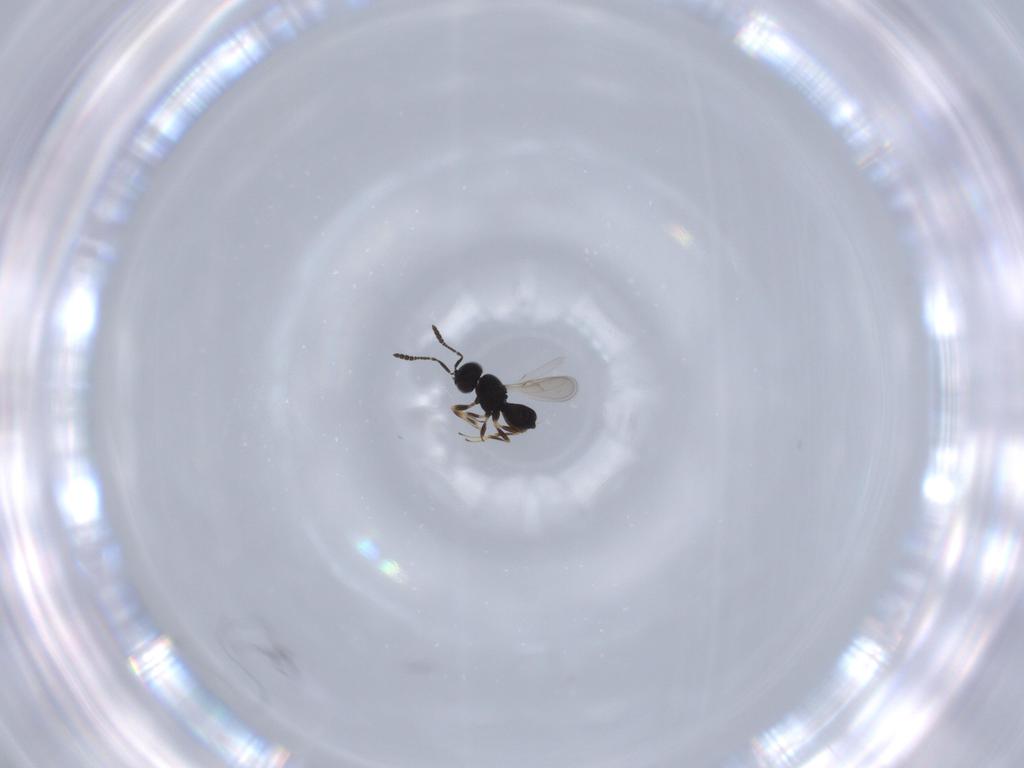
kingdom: Animalia
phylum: Arthropoda
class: Insecta
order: Hymenoptera
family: Scelionidae
